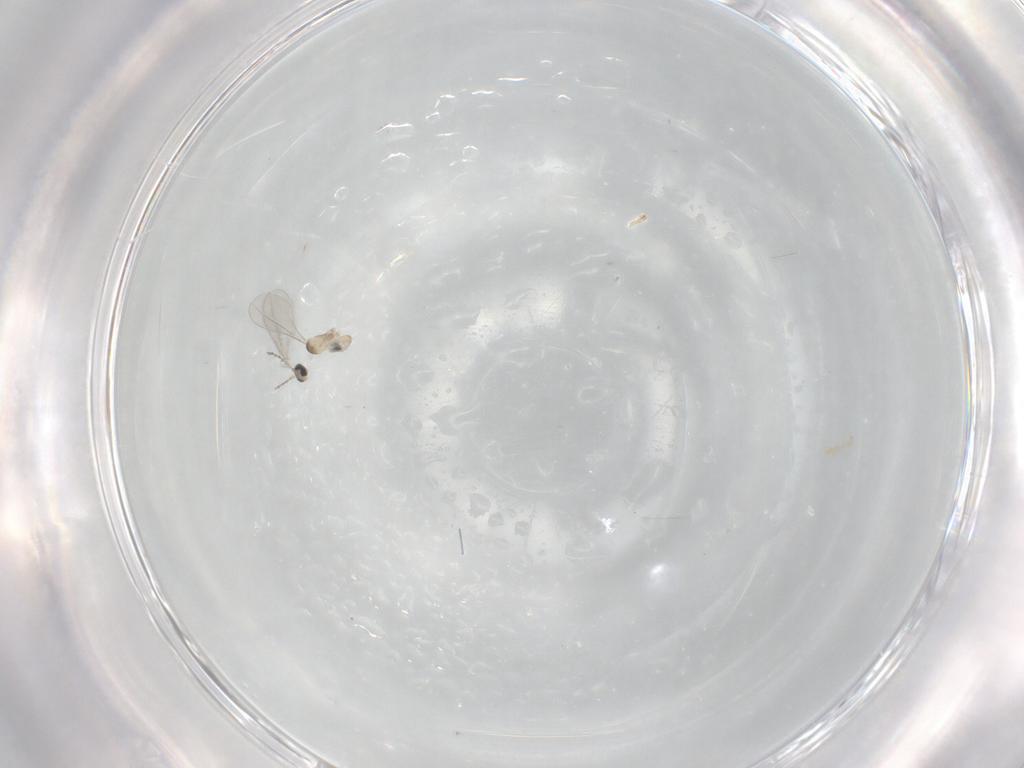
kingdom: Animalia
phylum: Arthropoda
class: Insecta
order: Diptera
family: Cecidomyiidae
